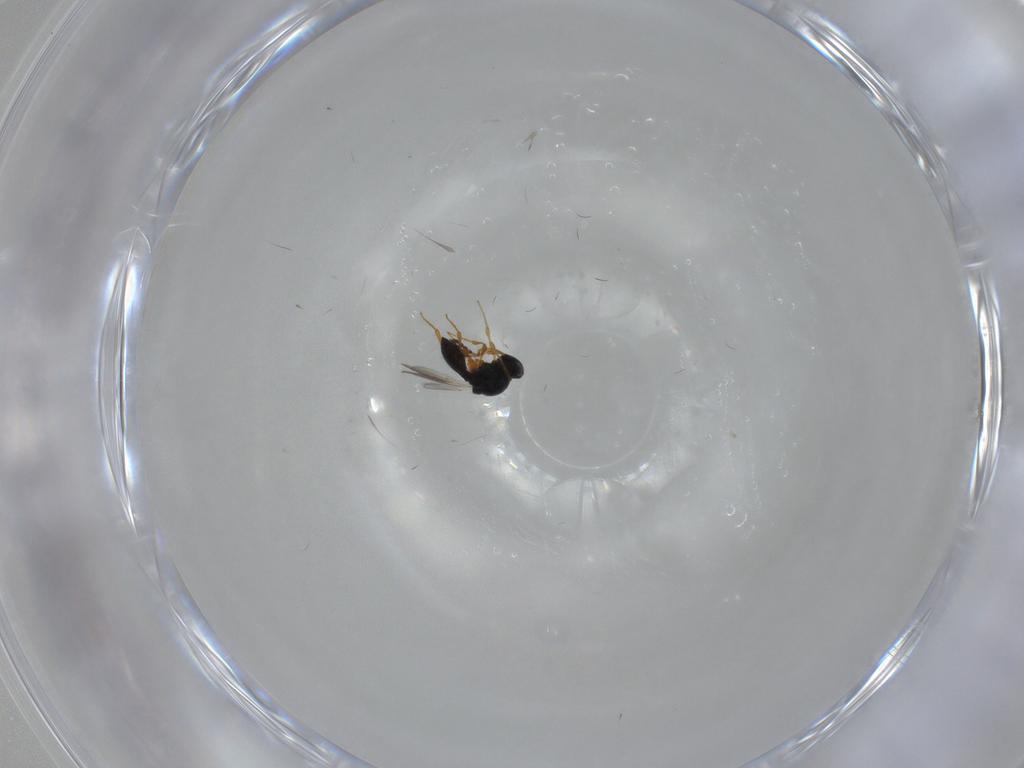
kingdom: Animalia
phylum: Arthropoda
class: Insecta
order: Hymenoptera
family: Platygastridae
